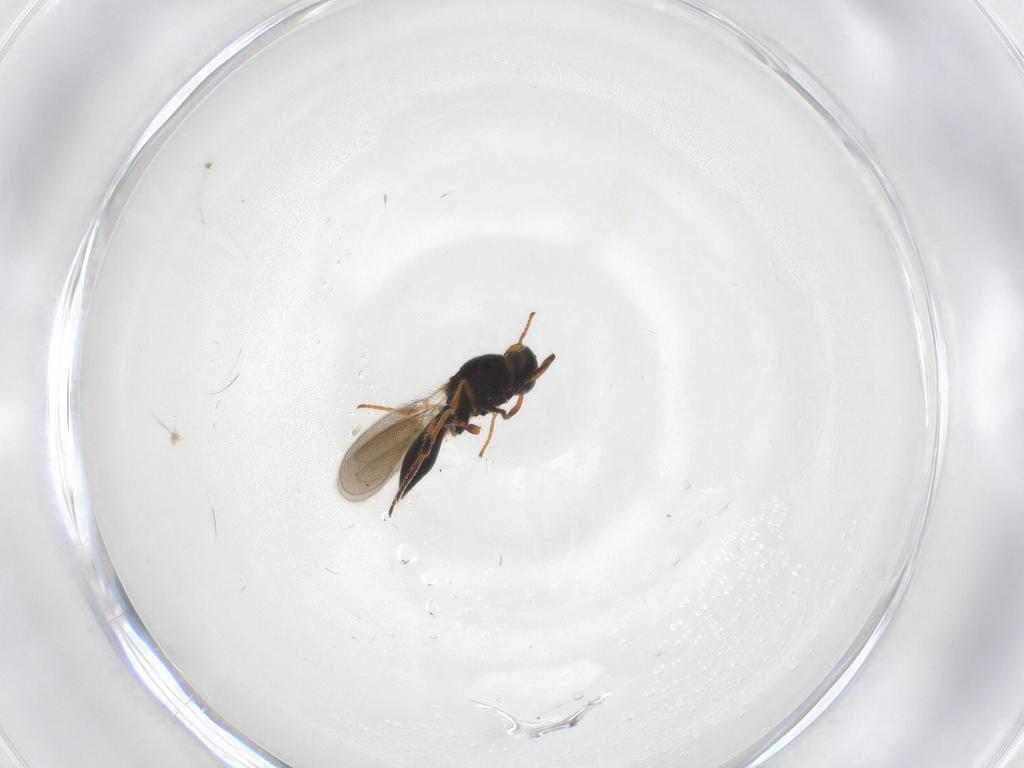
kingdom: Animalia
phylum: Arthropoda
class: Insecta
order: Hymenoptera
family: Platygastridae
